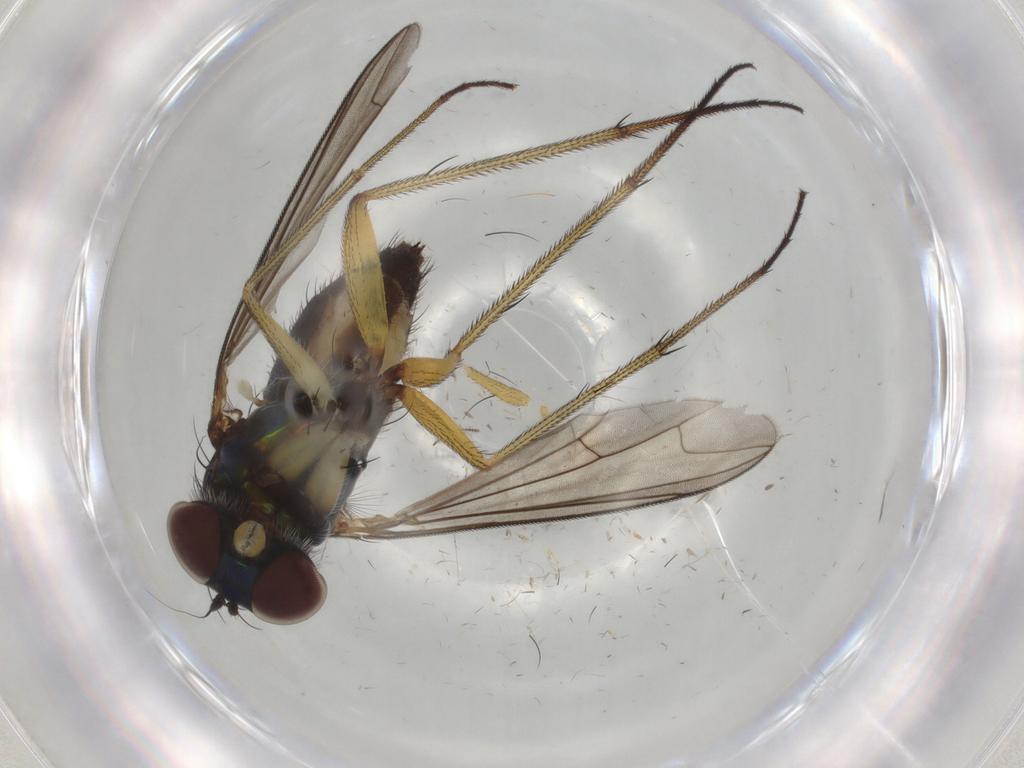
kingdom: Animalia
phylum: Arthropoda
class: Insecta
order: Diptera
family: Dolichopodidae
